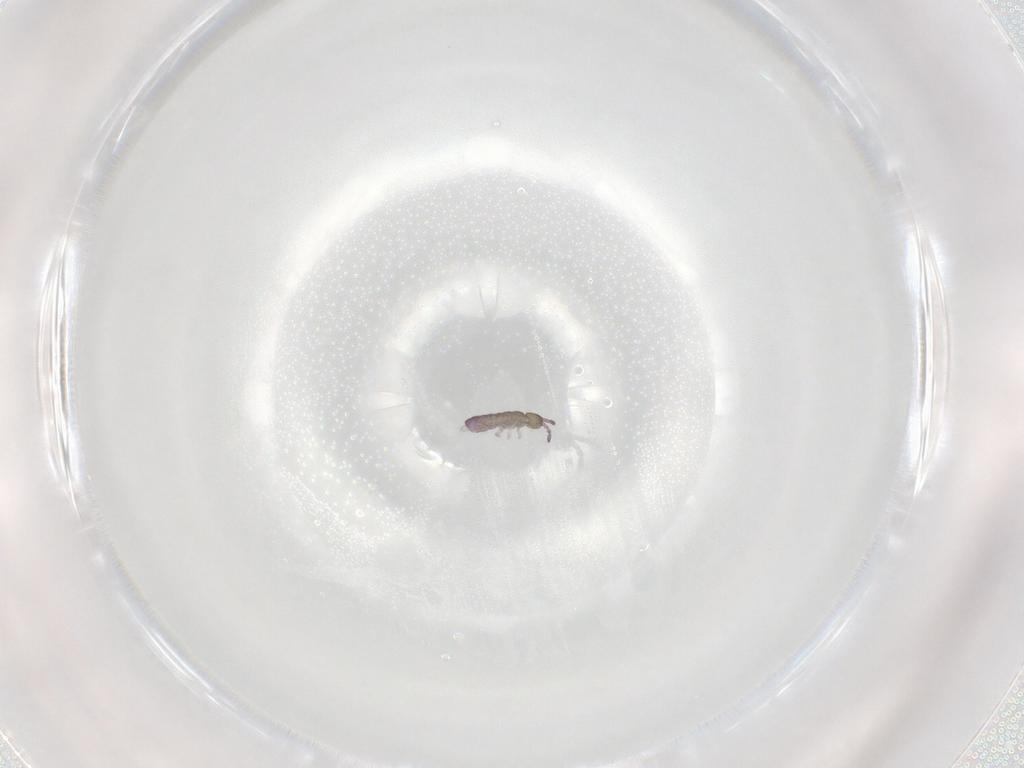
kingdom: Animalia
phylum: Arthropoda
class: Collembola
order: Entomobryomorpha
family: Isotomidae
